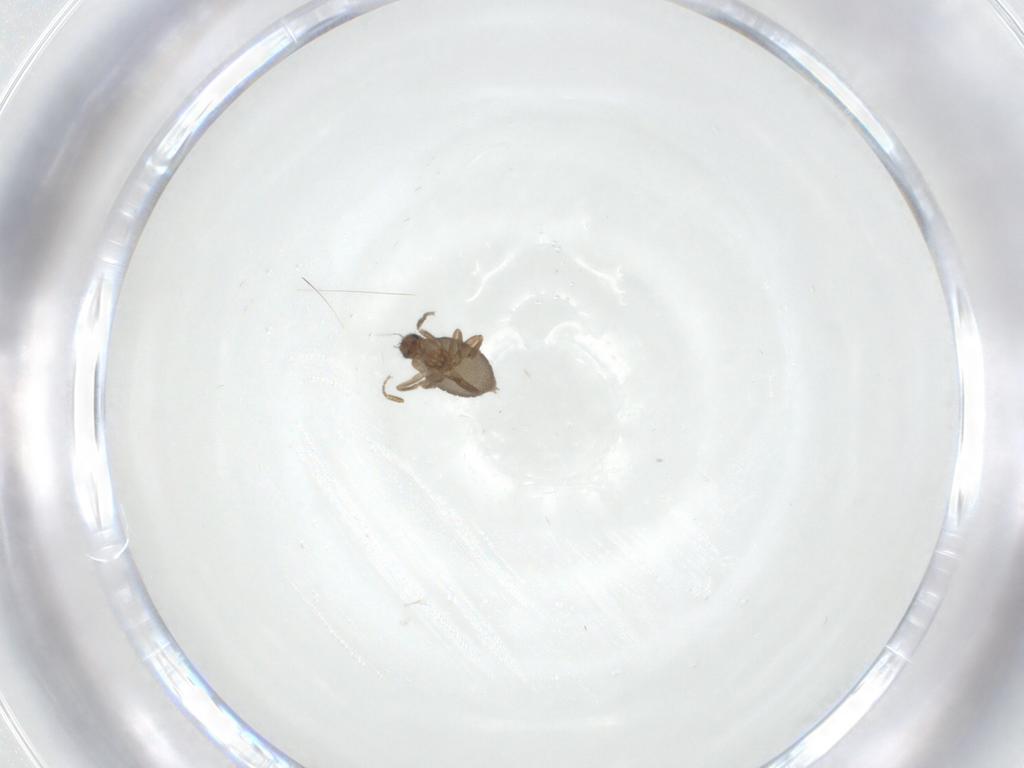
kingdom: Animalia
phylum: Arthropoda
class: Insecta
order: Diptera
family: Phoridae
